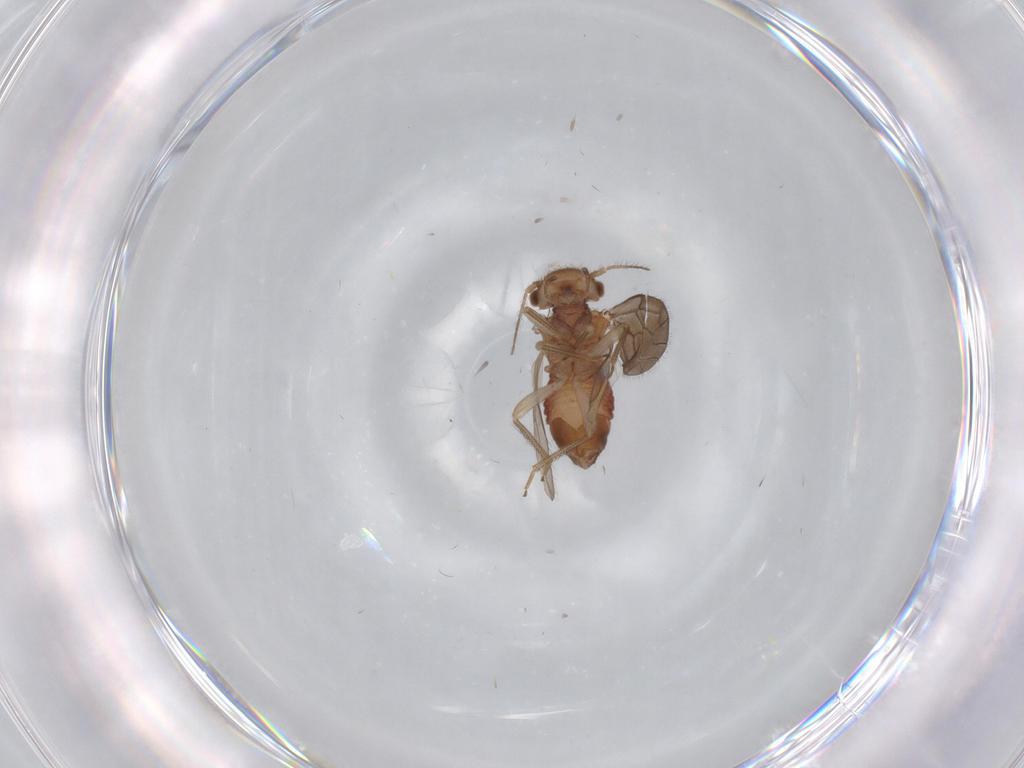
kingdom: Animalia
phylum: Arthropoda
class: Insecta
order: Psocodea
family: Ectopsocidae
